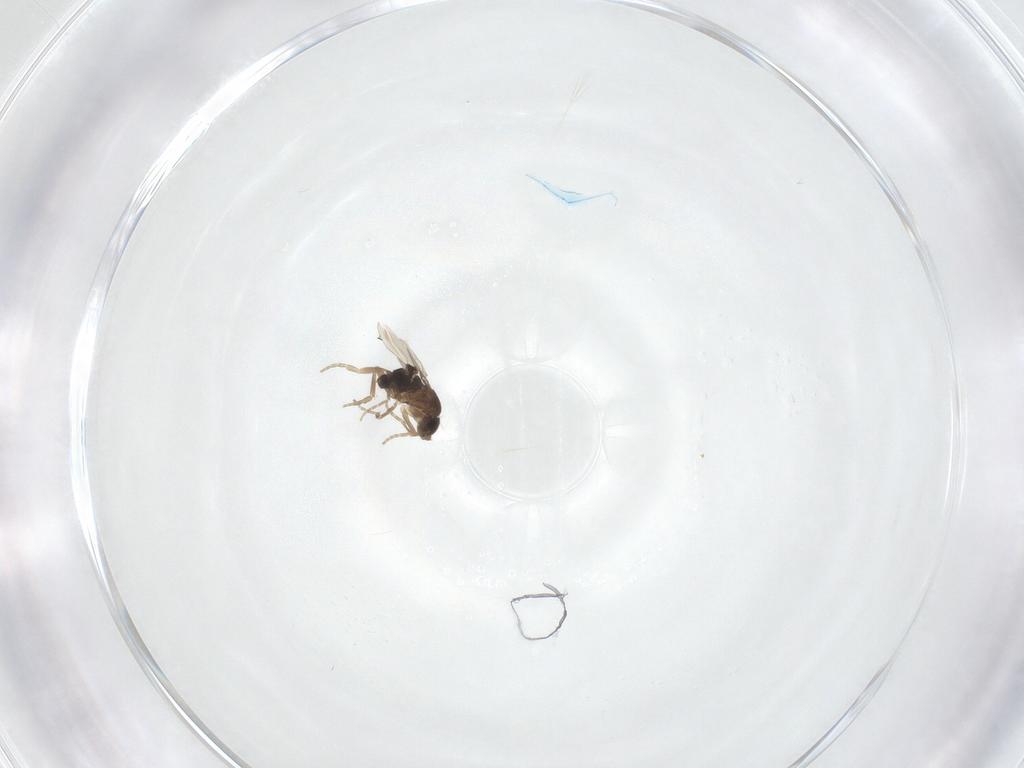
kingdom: Animalia
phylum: Arthropoda
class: Insecta
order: Diptera
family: Phoridae
